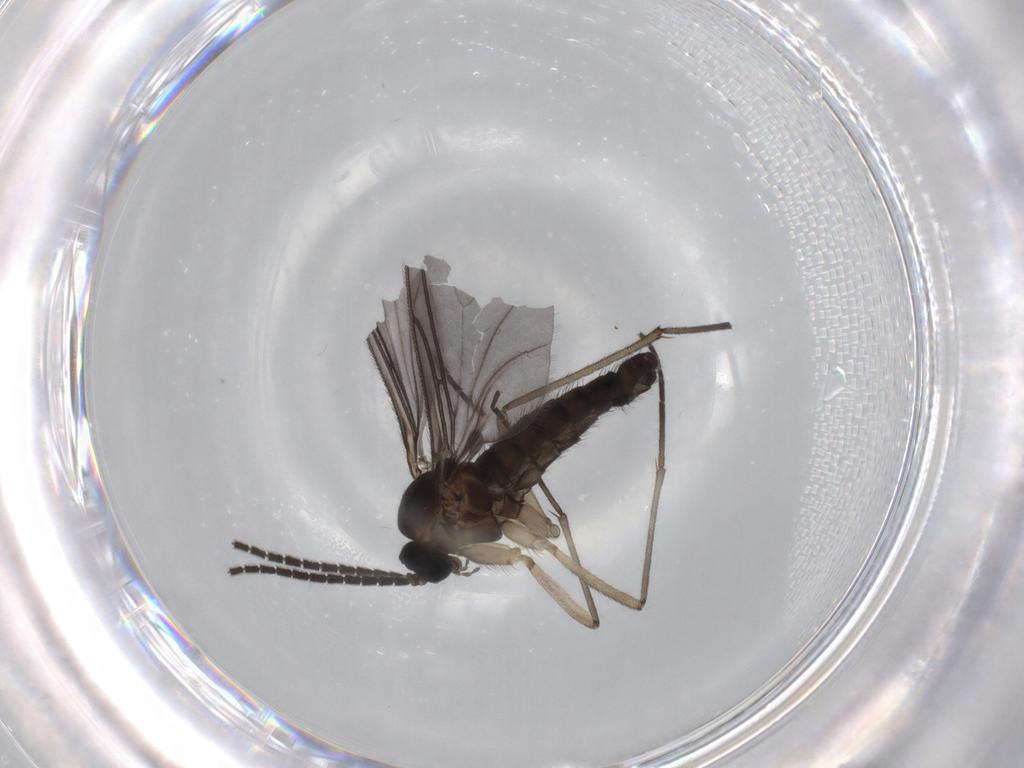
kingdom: Animalia
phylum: Arthropoda
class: Insecta
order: Diptera
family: Sciaridae
